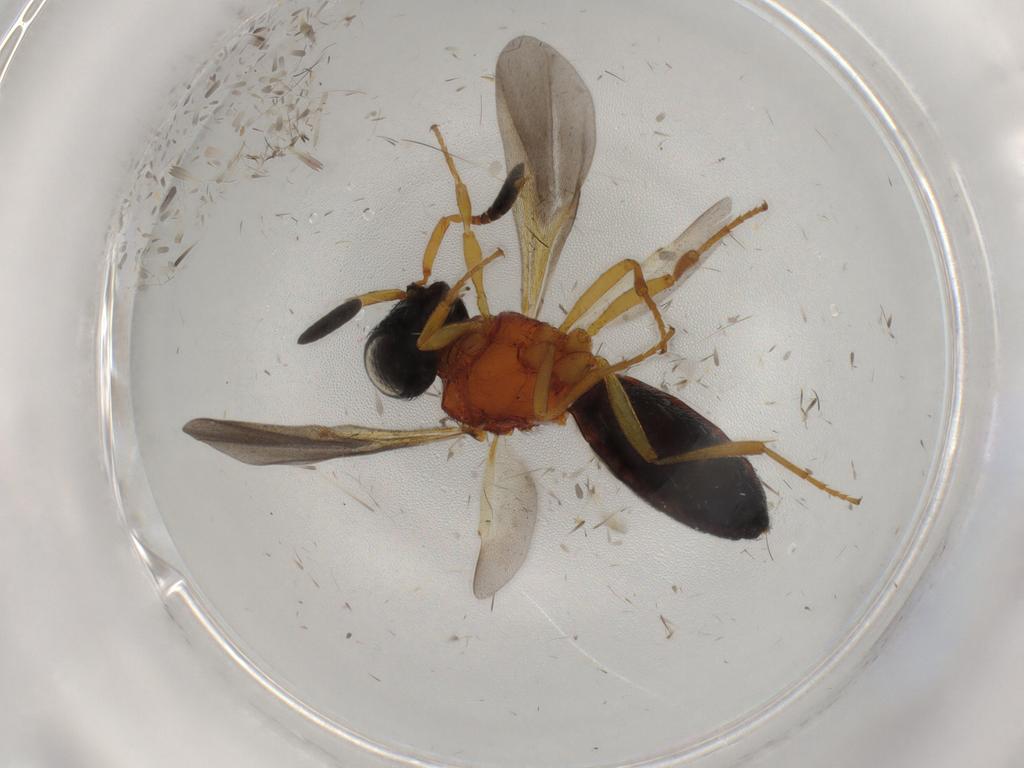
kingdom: Animalia
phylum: Arthropoda
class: Insecta
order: Hymenoptera
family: Scelionidae
